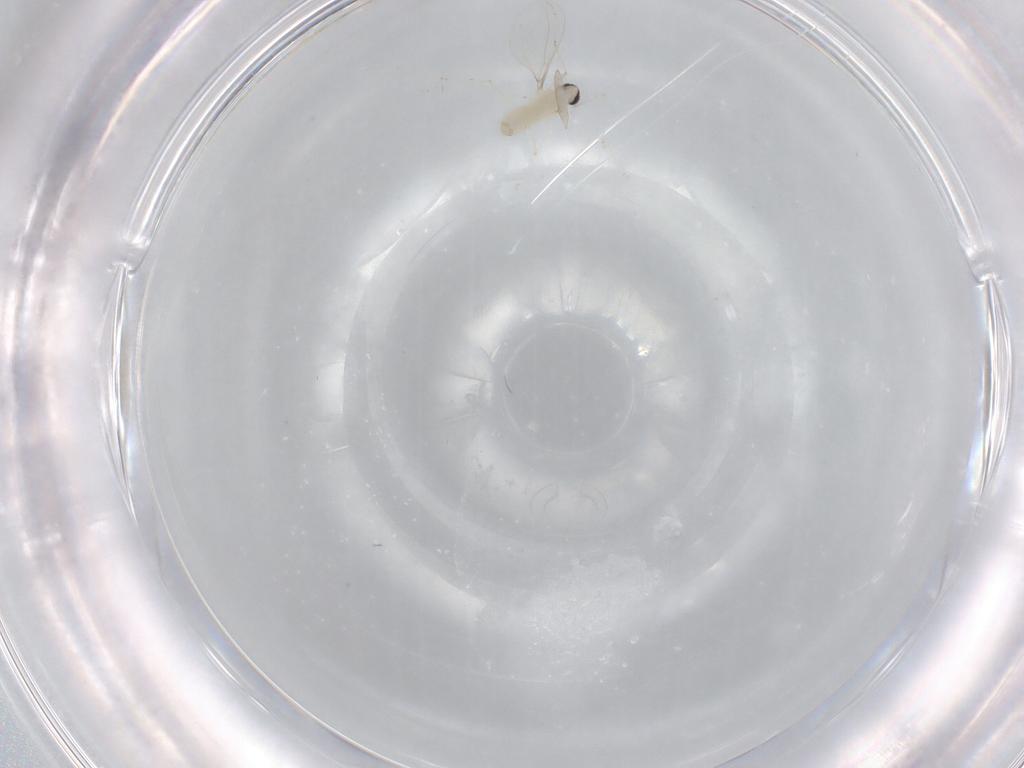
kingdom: Animalia
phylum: Arthropoda
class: Insecta
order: Diptera
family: Cecidomyiidae
